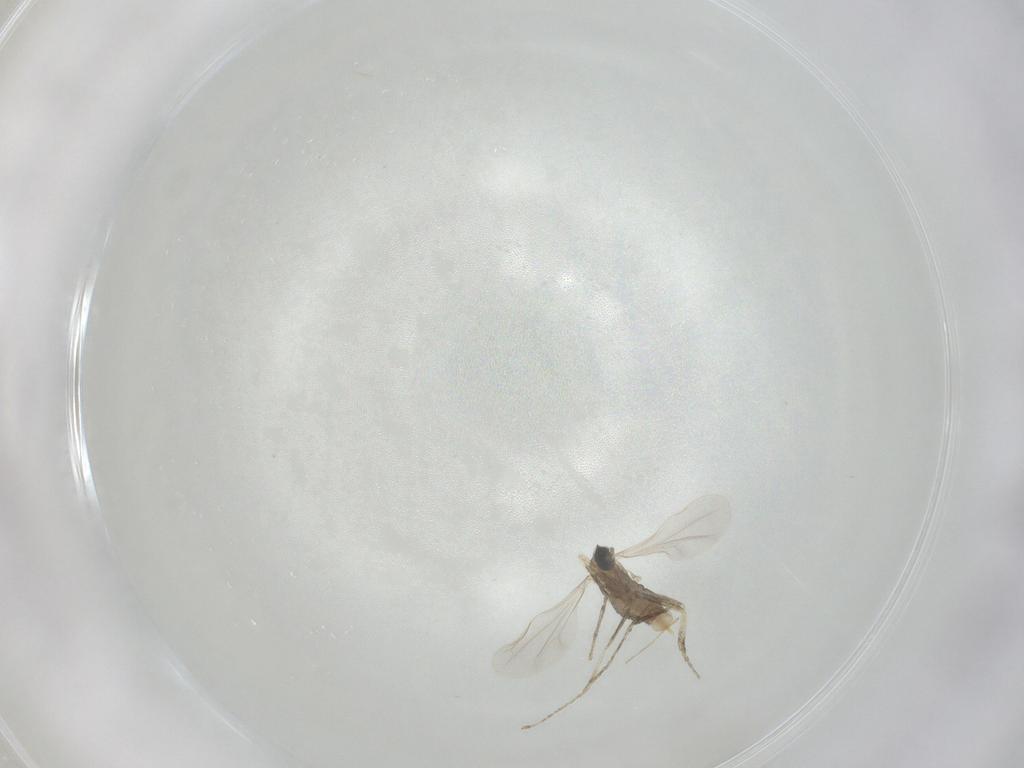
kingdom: Animalia
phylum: Arthropoda
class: Insecta
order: Diptera
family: Cecidomyiidae
